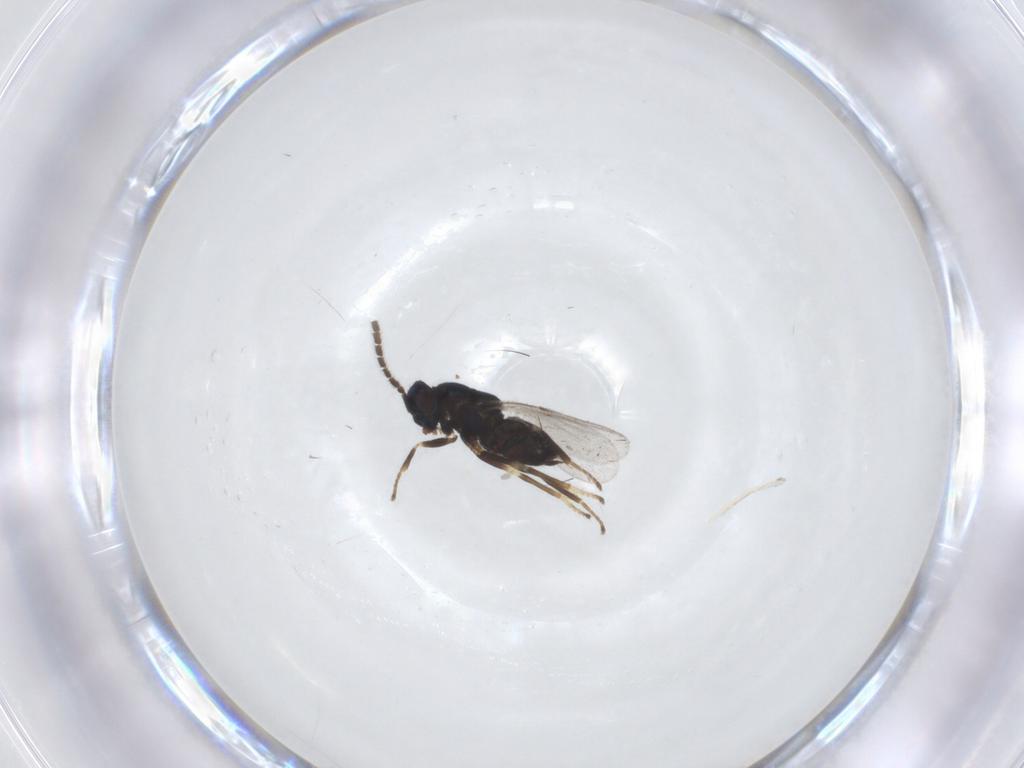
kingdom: Animalia
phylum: Arthropoda
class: Insecta
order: Hymenoptera
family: Encyrtidae
